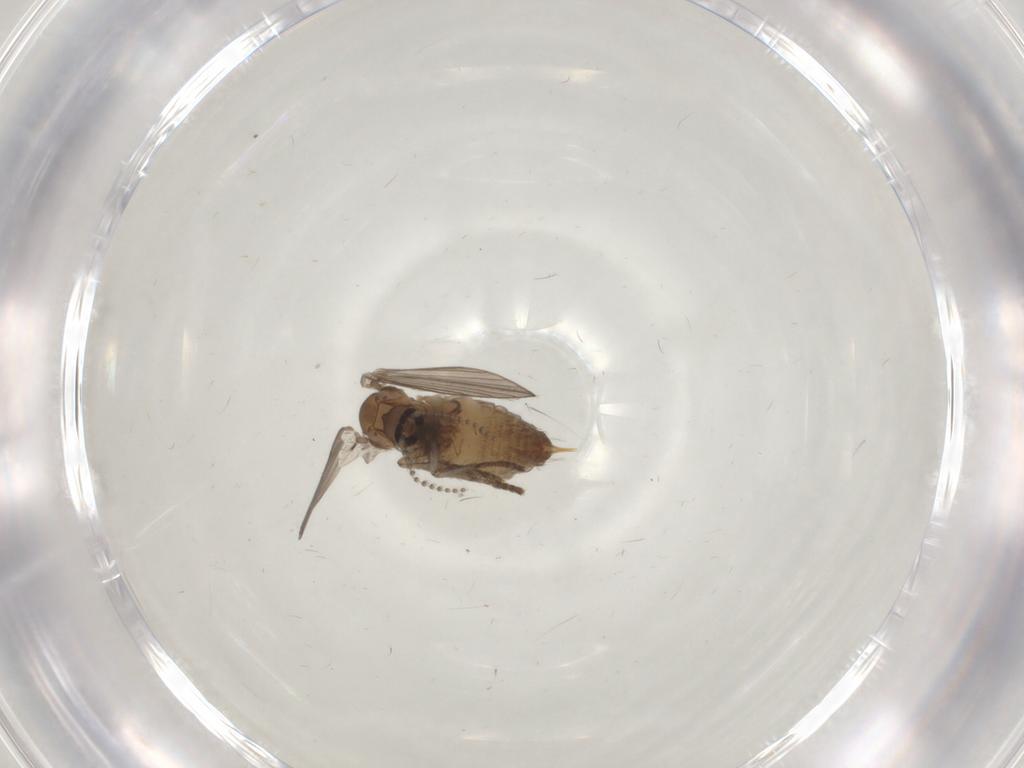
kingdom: Animalia
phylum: Arthropoda
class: Insecta
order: Diptera
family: Psychodidae
